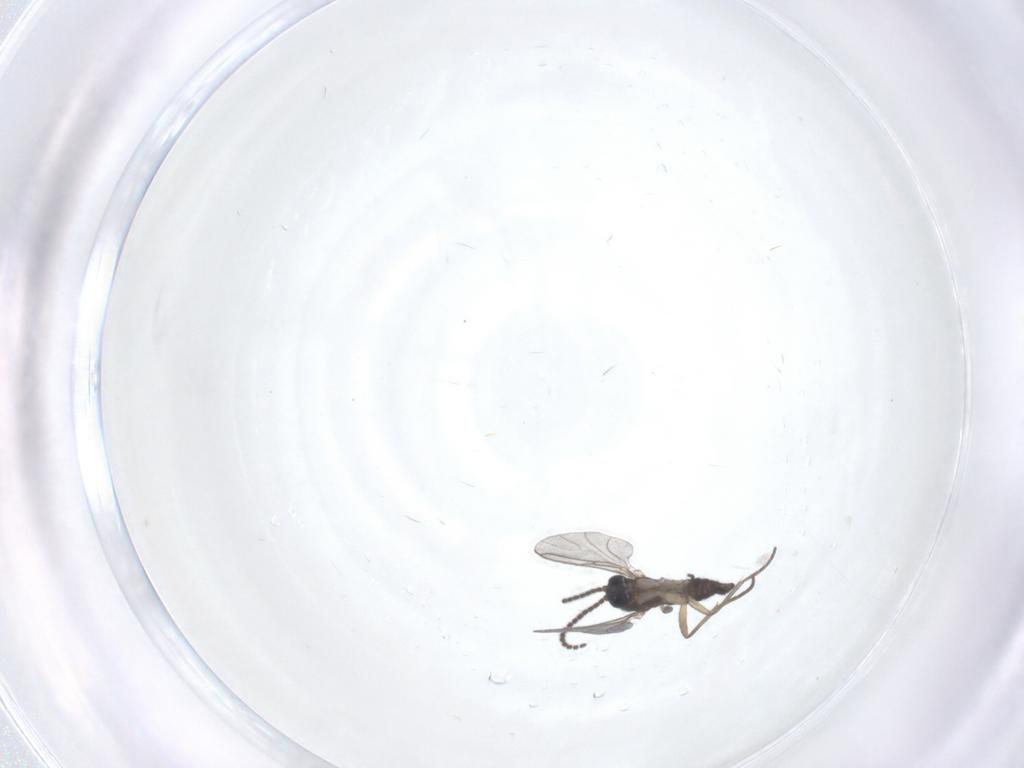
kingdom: Animalia
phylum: Arthropoda
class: Insecta
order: Diptera
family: Sciaridae
